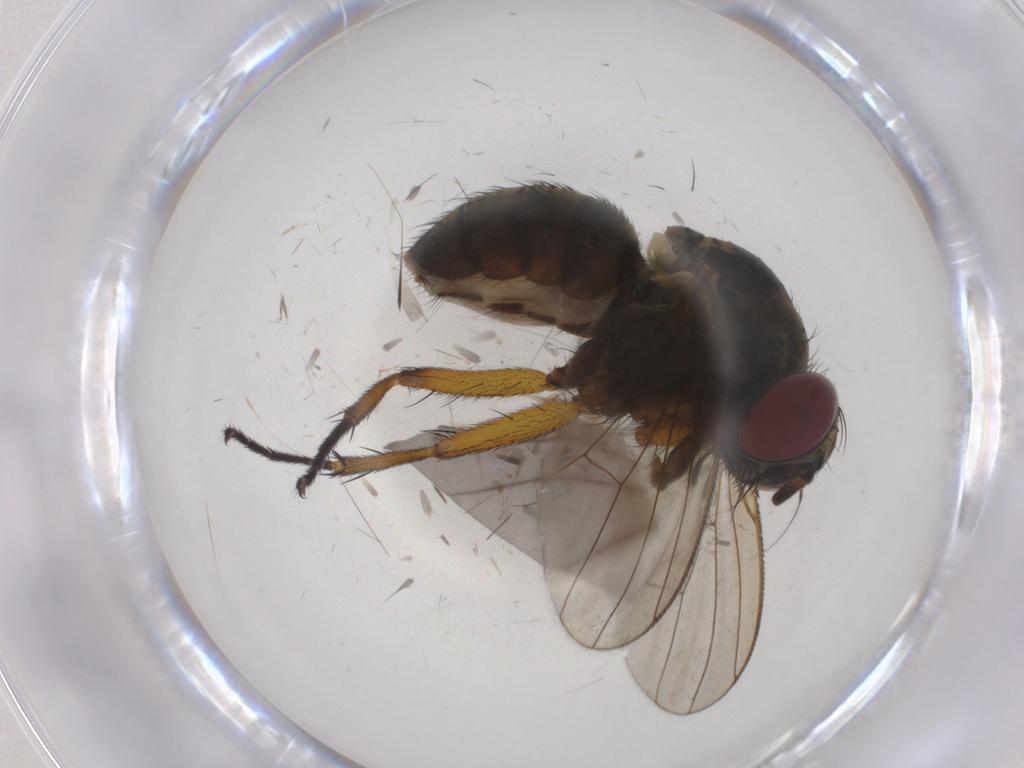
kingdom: Animalia
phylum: Arthropoda
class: Insecta
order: Diptera
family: Muscidae
